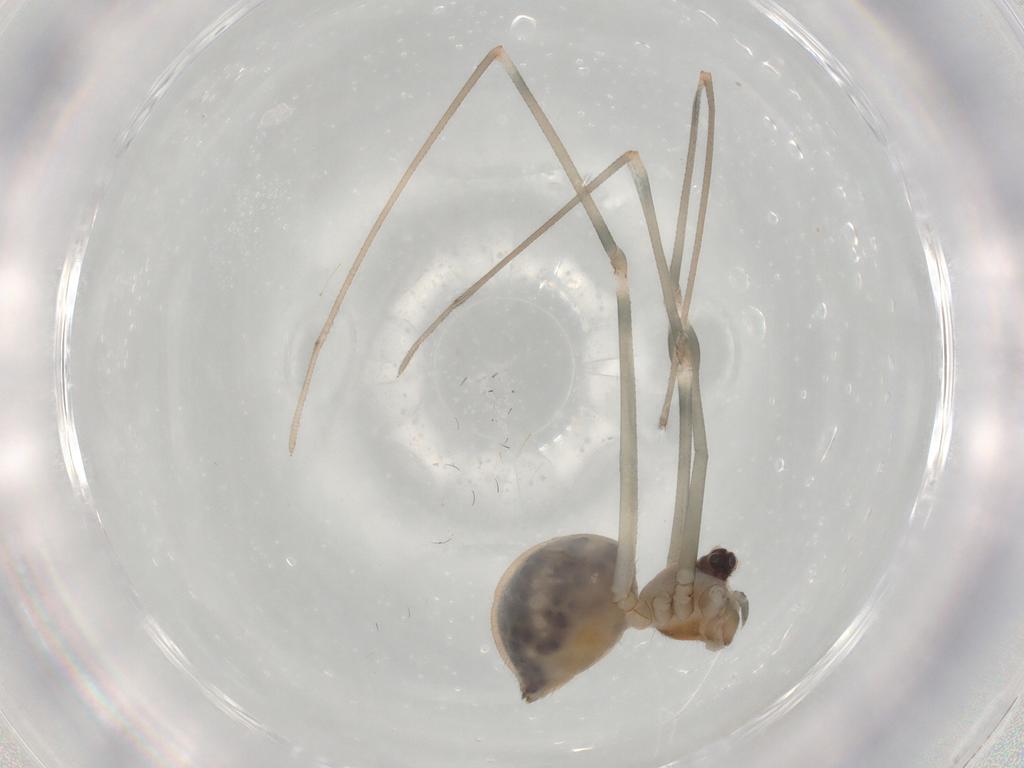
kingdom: Animalia
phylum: Arthropoda
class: Arachnida
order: Araneae
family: Pholcidae
